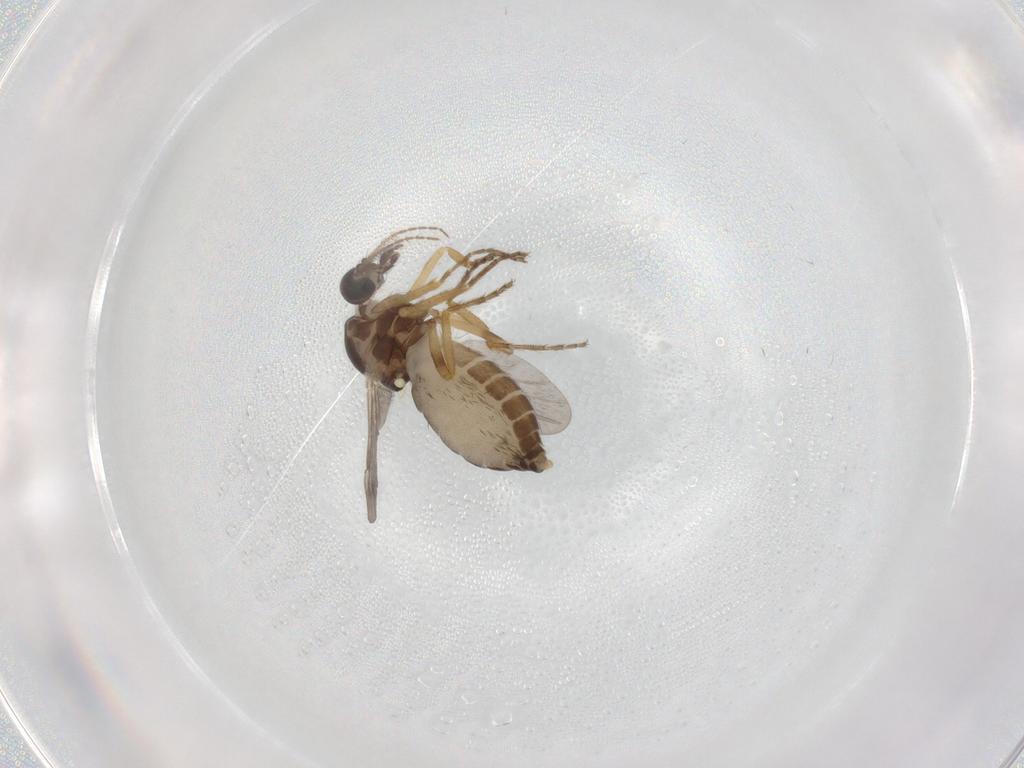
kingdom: Animalia
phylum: Arthropoda
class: Insecta
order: Diptera
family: Ceratopogonidae
